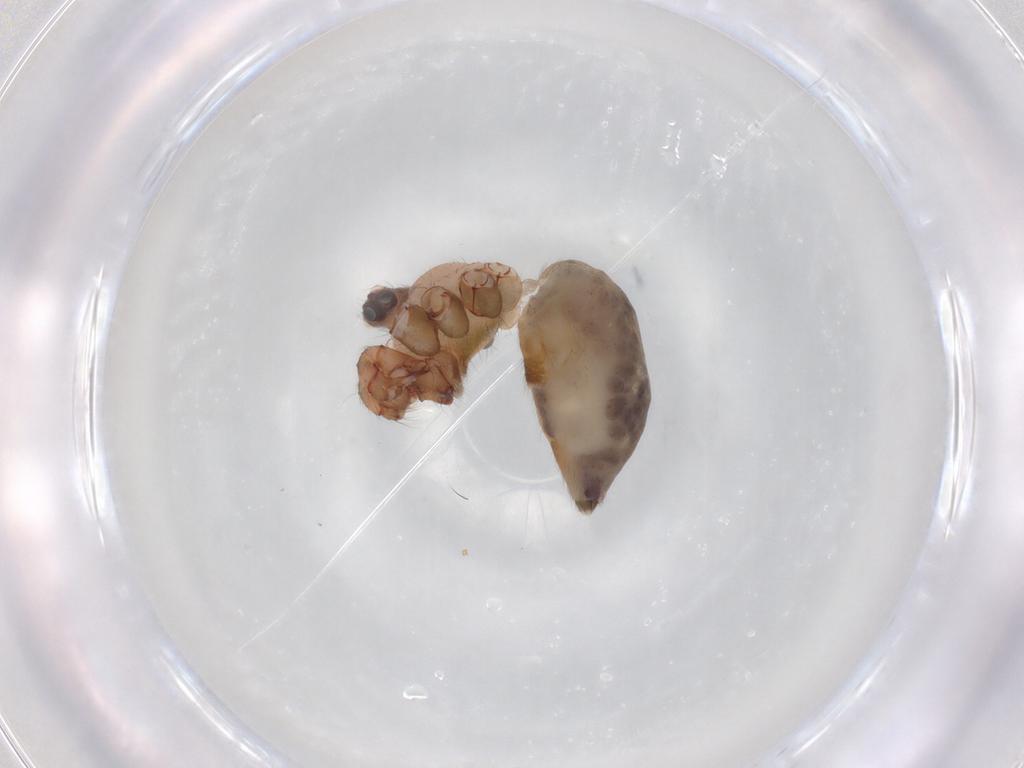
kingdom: Animalia
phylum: Arthropoda
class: Arachnida
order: Araneae
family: Pholcidae
